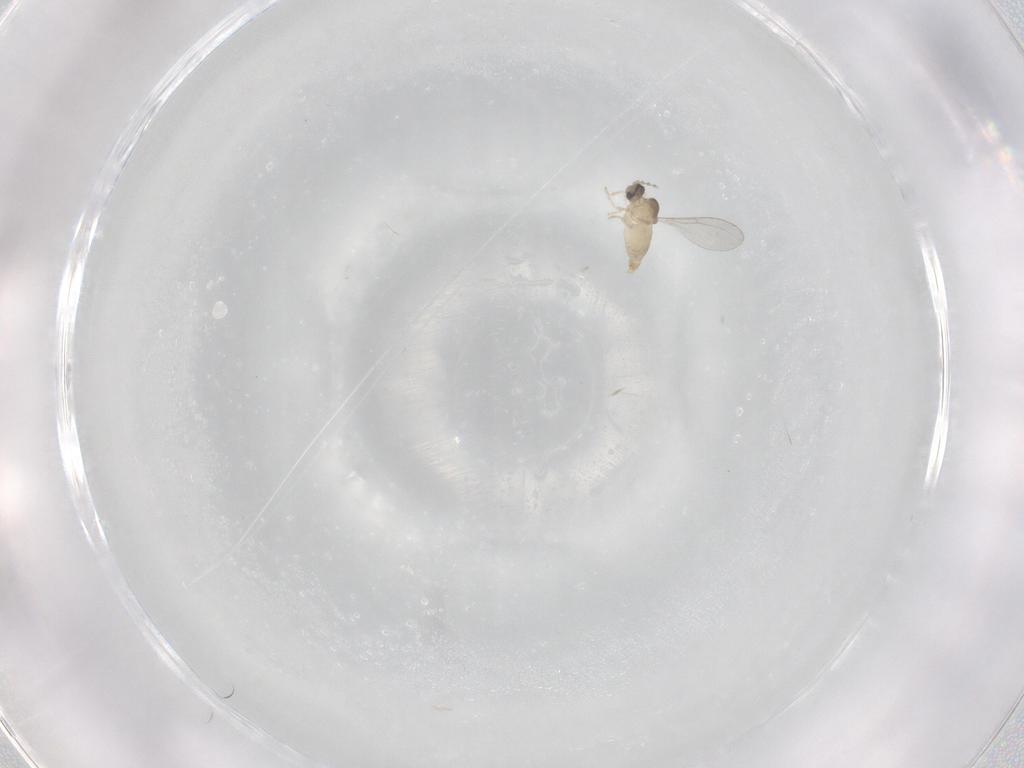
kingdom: Animalia
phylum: Arthropoda
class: Insecta
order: Diptera
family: Cecidomyiidae
